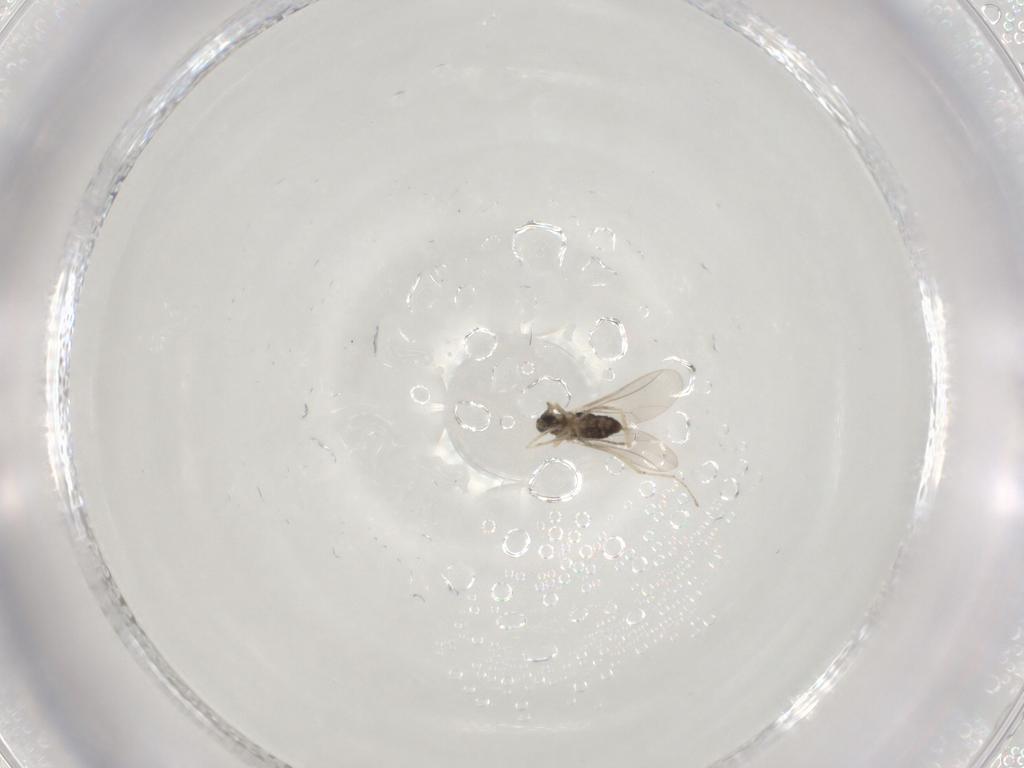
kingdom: Animalia
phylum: Arthropoda
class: Insecta
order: Diptera
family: Cecidomyiidae
